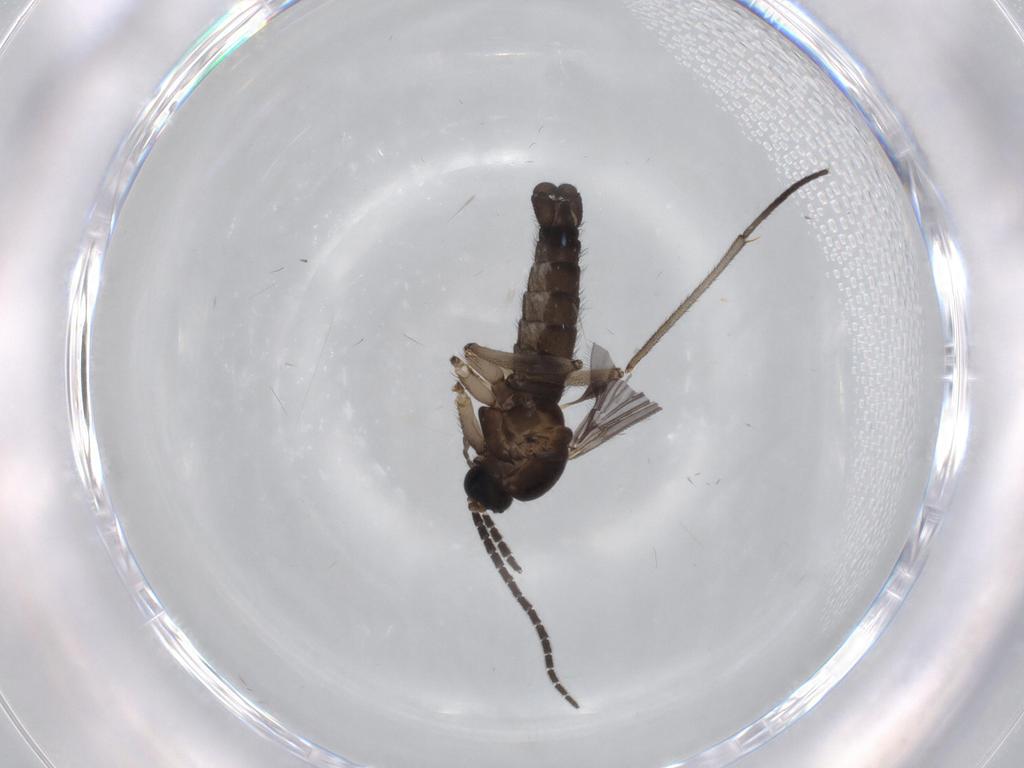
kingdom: Animalia
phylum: Arthropoda
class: Insecta
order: Diptera
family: Sciaridae
